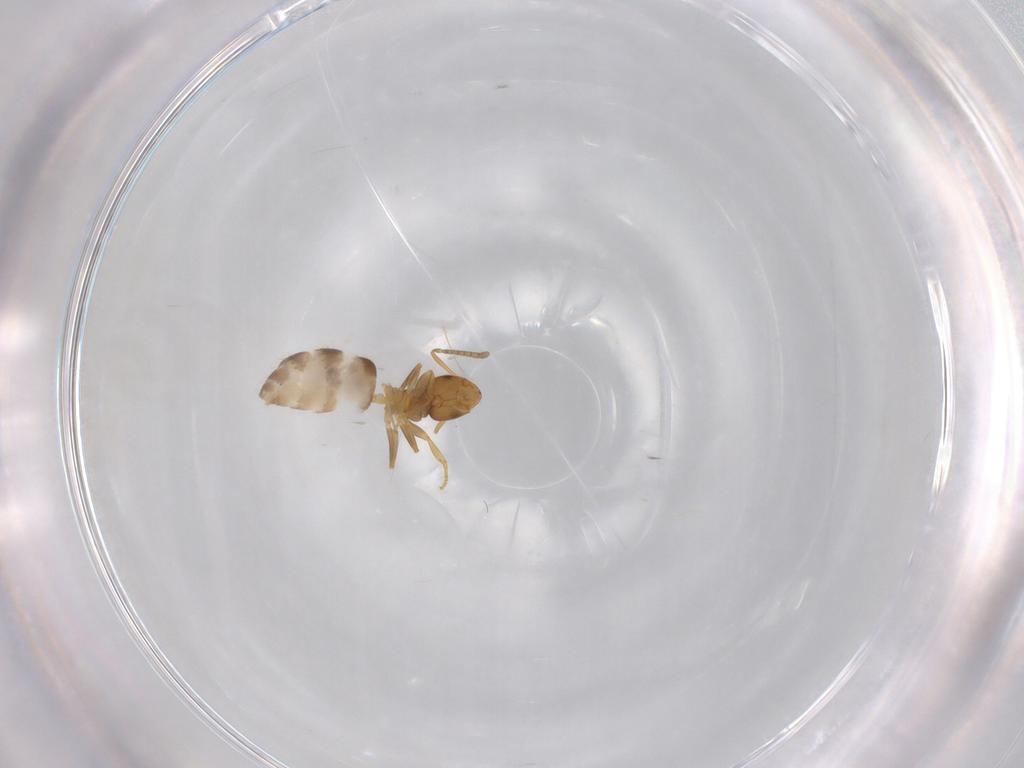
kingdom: Animalia
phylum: Arthropoda
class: Insecta
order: Hymenoptera
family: Formicidae
